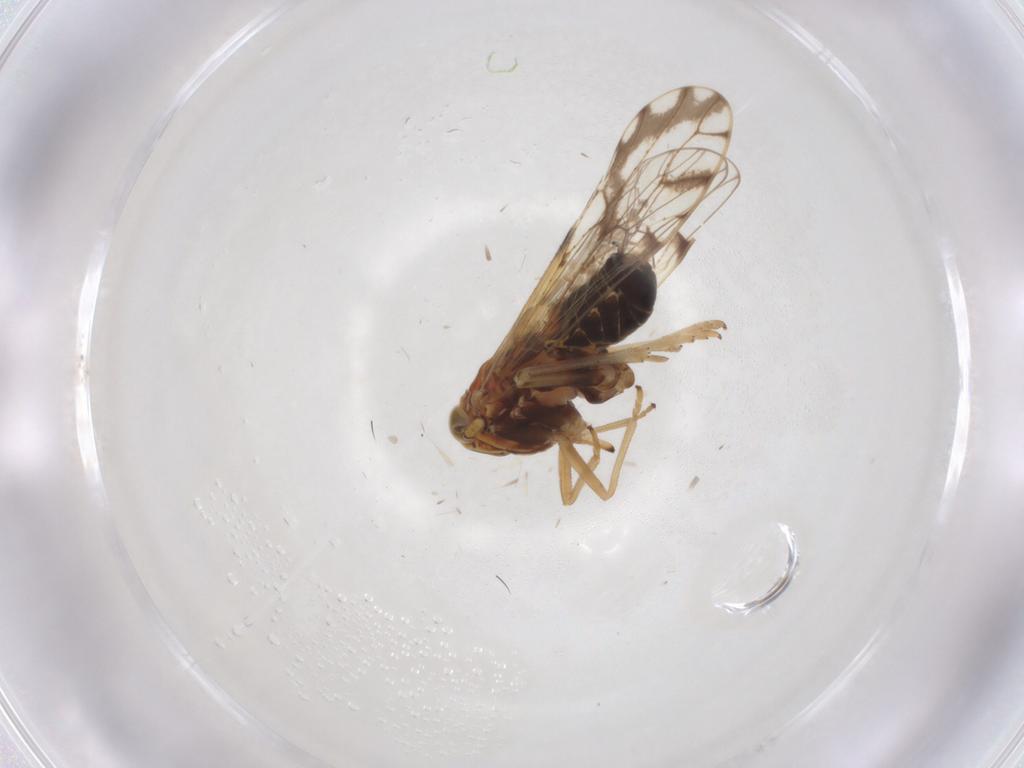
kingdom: Animalia
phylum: Arthropoda
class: Insecta
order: Hemiptera
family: Delphacidae
